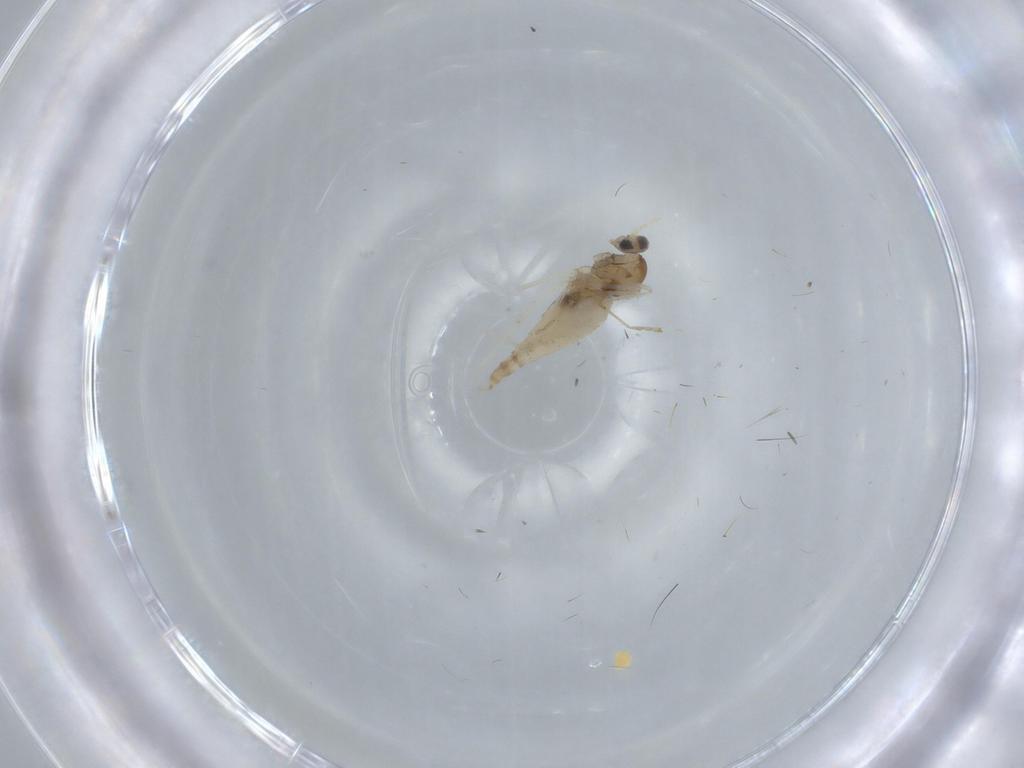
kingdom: Animalia
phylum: Arthropoda
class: Insecta
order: Diptera
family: Cecidomyiidae
